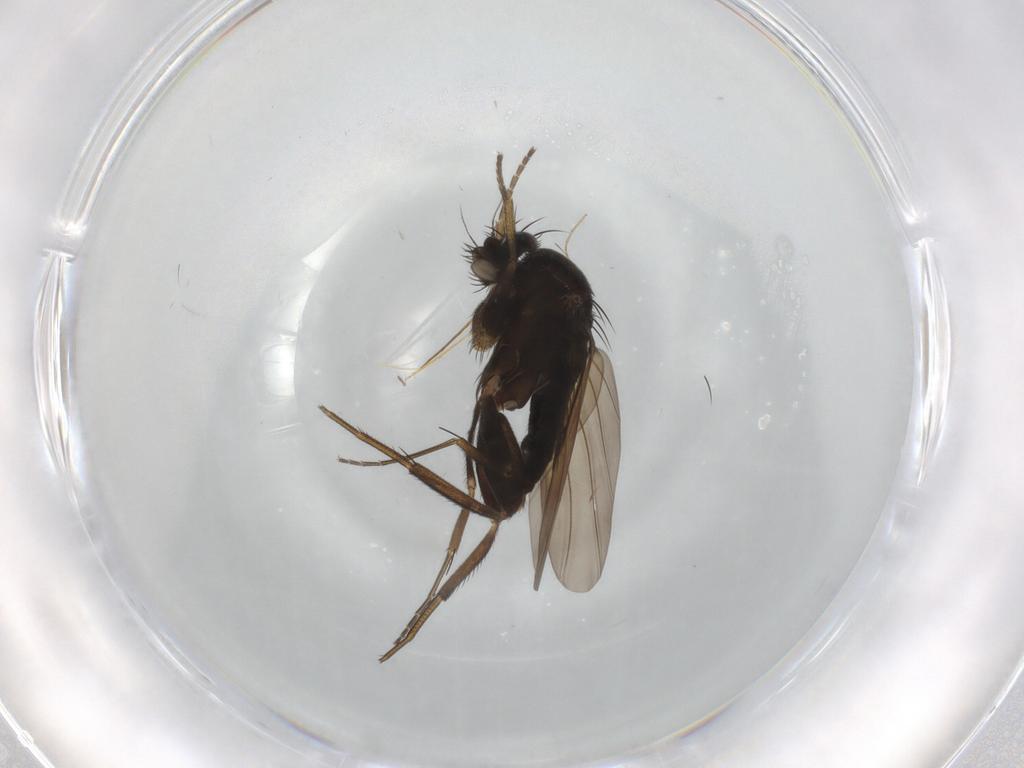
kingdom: Animalia
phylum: Arthropoda
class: Insecta
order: Diptera
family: Phoridae
